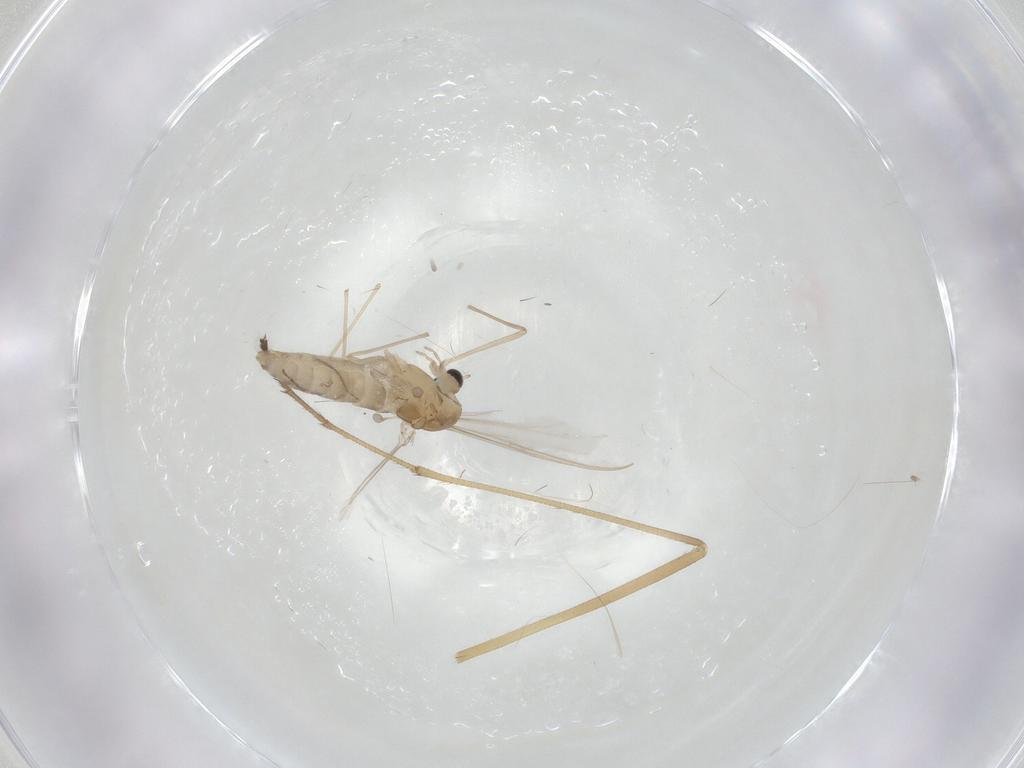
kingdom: Animalia
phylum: Arthropoda
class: Insecta
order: Diptera
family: Chironomidae
